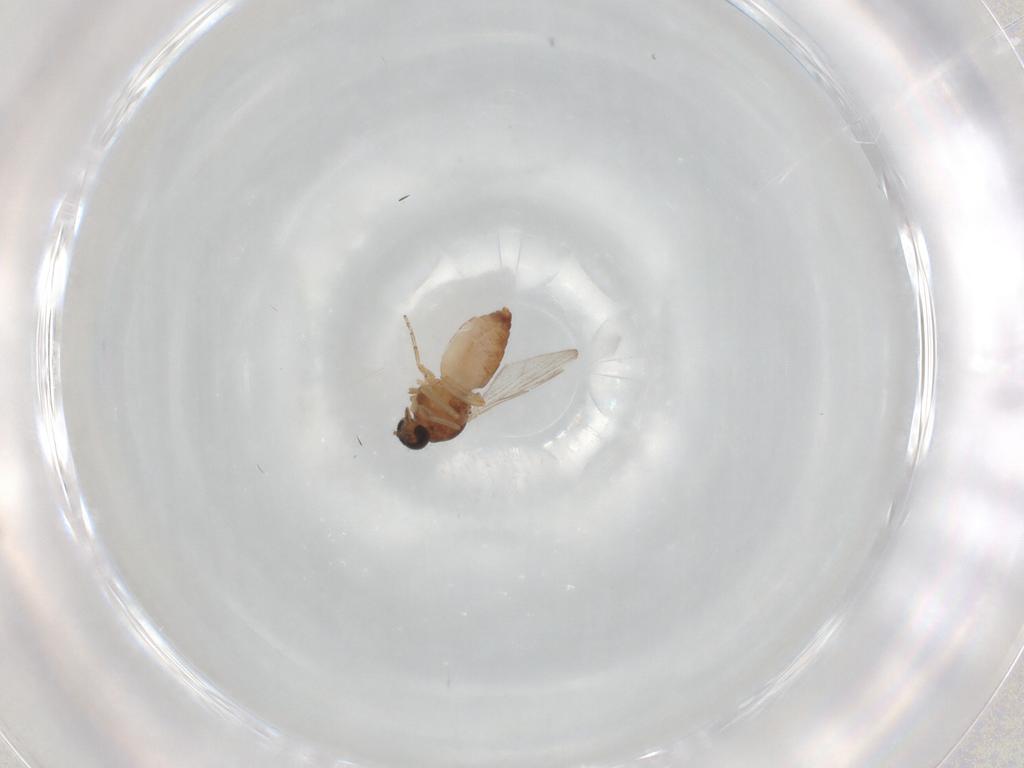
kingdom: Animalia
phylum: Arthropoda
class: Insecta
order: Diptera
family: Ceratopogonidae
